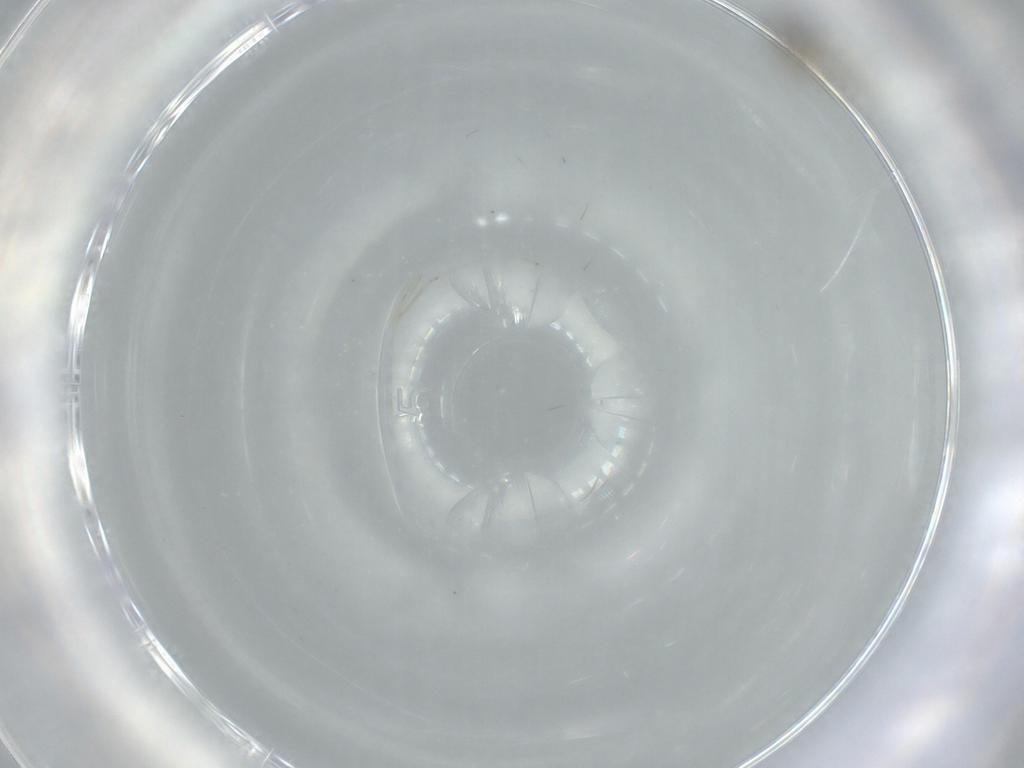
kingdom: Animalia
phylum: Arthropoda
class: Insecta
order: Diptera
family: Cecidomyiidae
